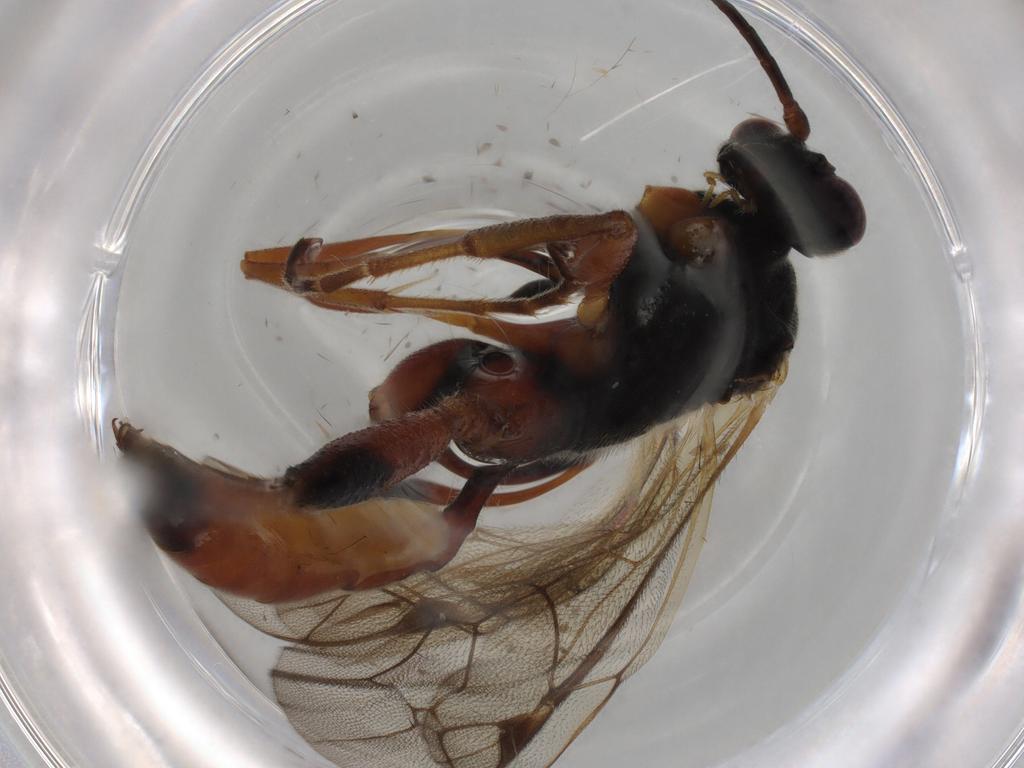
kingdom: Animalia
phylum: Arthropoda
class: Insecta
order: Hymenoptera
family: Ichneumonidae
